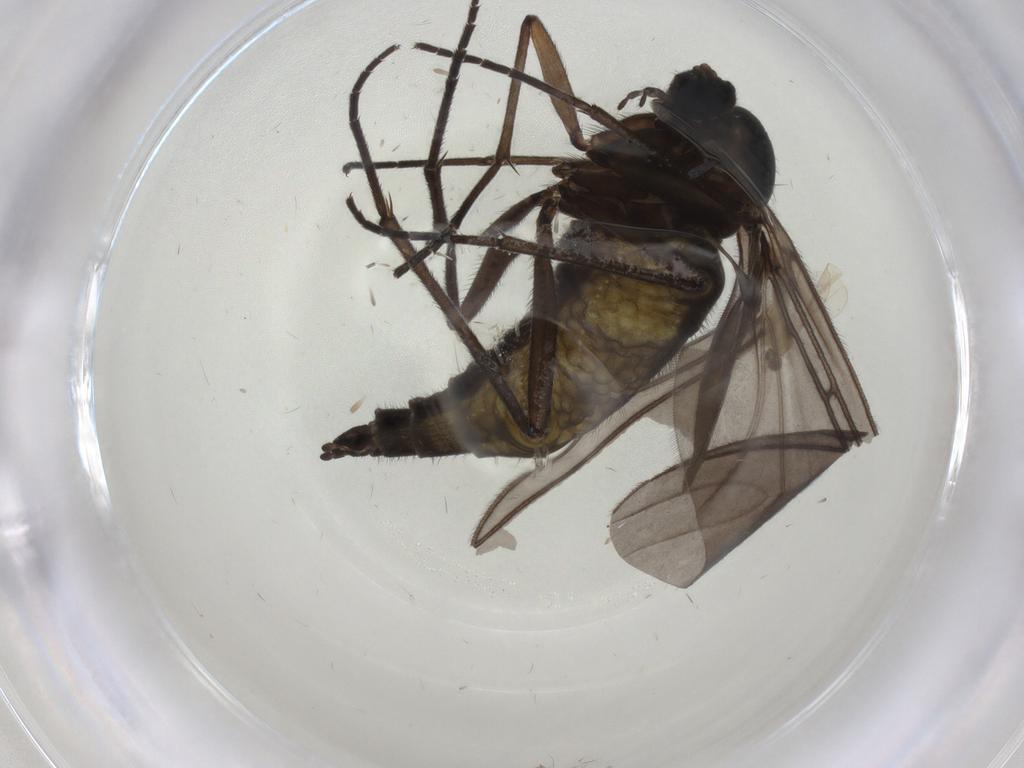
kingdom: Animalia
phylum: Arthropoda
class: Insecta
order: Diptera
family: Sciaridae
